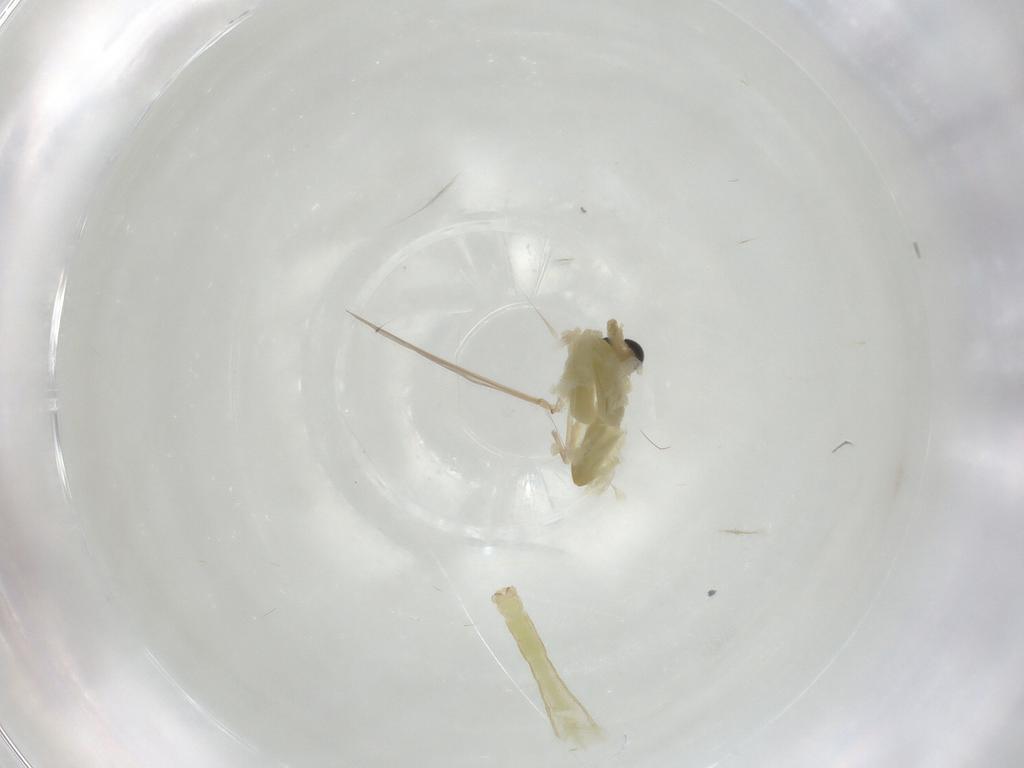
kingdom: Animalia
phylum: Arthropoda
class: Insecta
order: Diptera
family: Chironomidae
